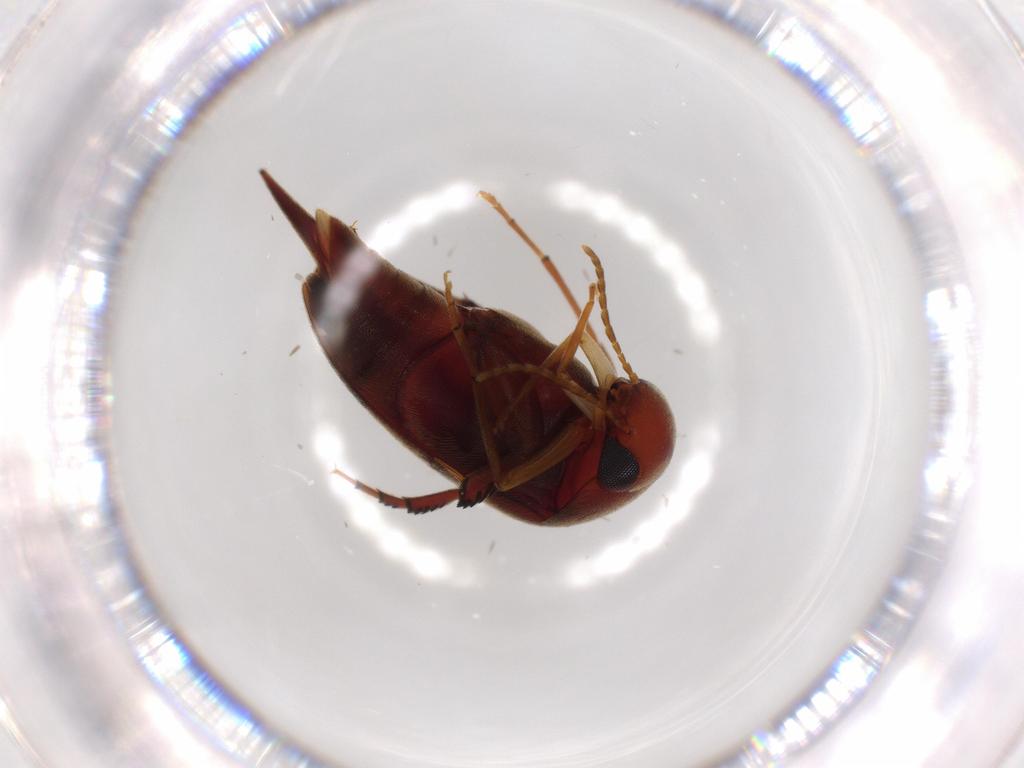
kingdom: Animalia
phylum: Arthropoda
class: Insecta
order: Coleoptera
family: Mordellidae
